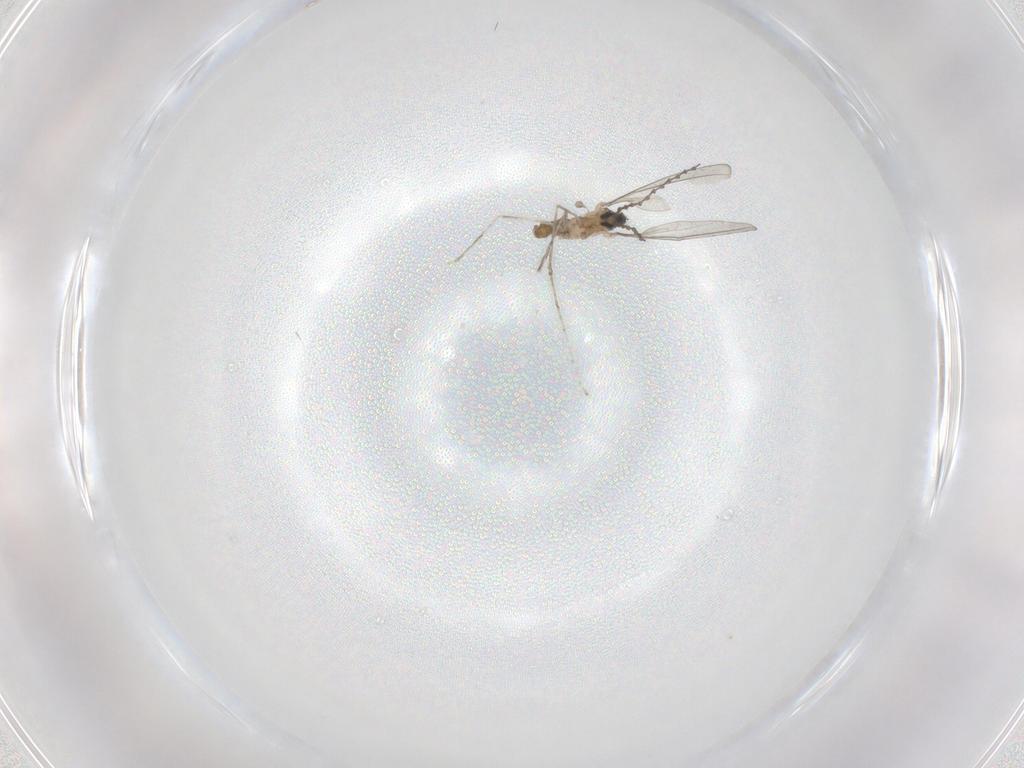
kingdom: Animalia
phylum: Arthropoda
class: Insecta
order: Diptera
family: Cecidomyiidae
